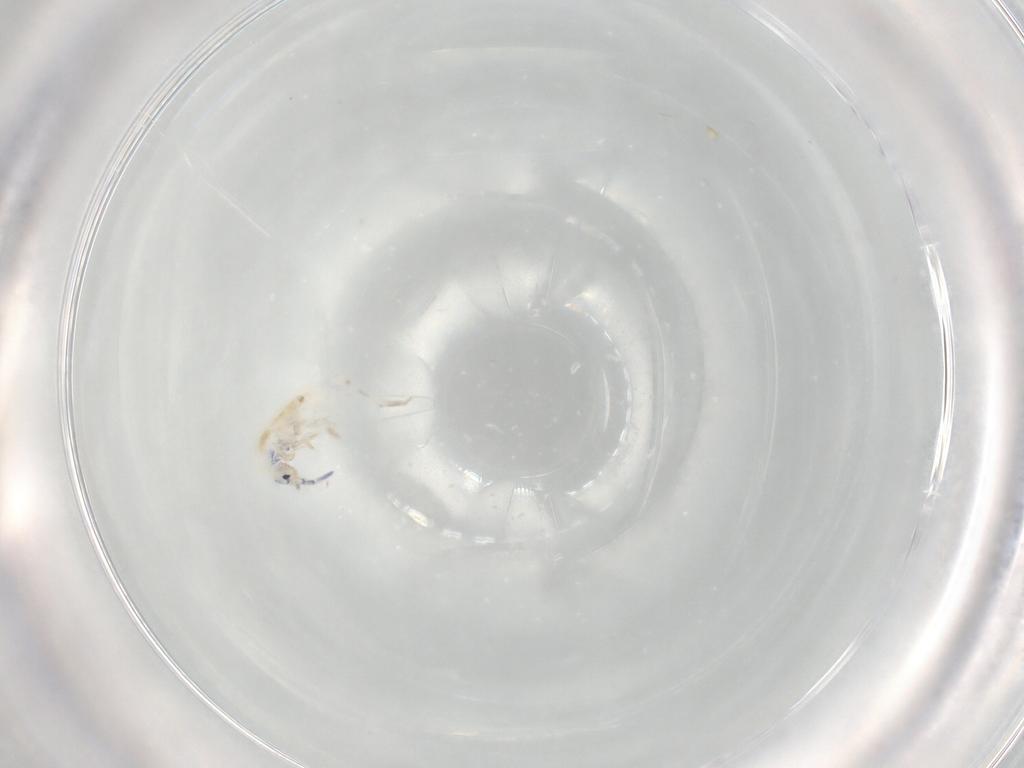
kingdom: Animalia
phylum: Arthropoda
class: Collembola
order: Entomobryomorpha
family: Entomobryidae
